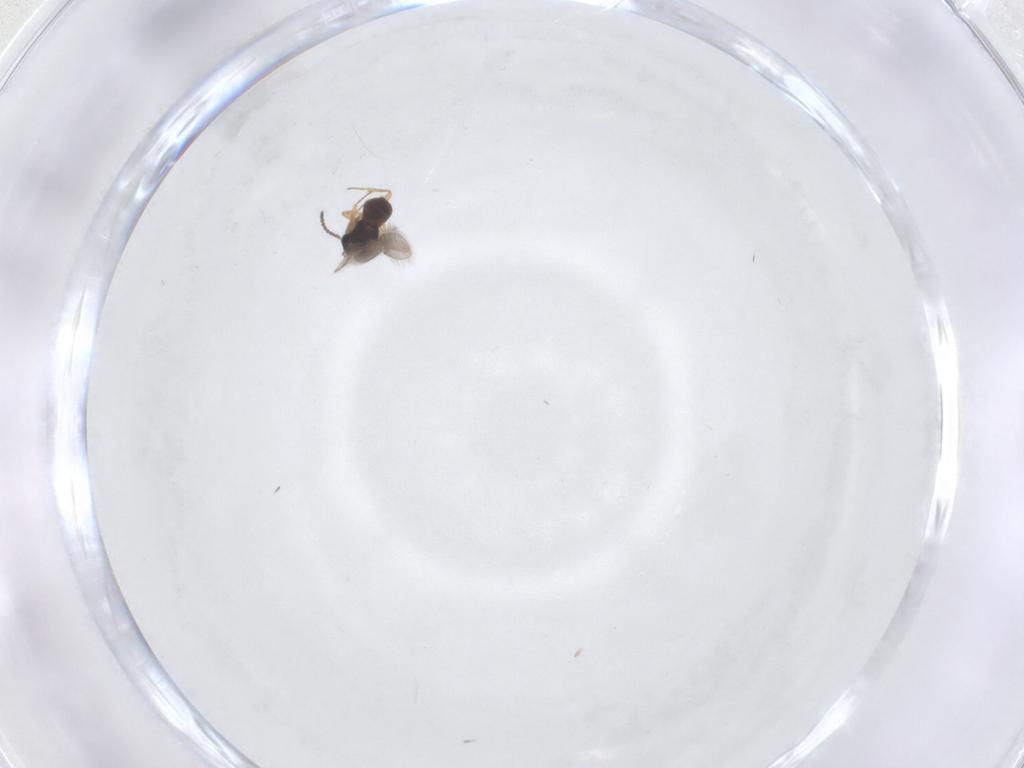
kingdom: Animalia
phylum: Arthropoda
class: Insecta
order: Hymenoptera
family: Scelionidae
